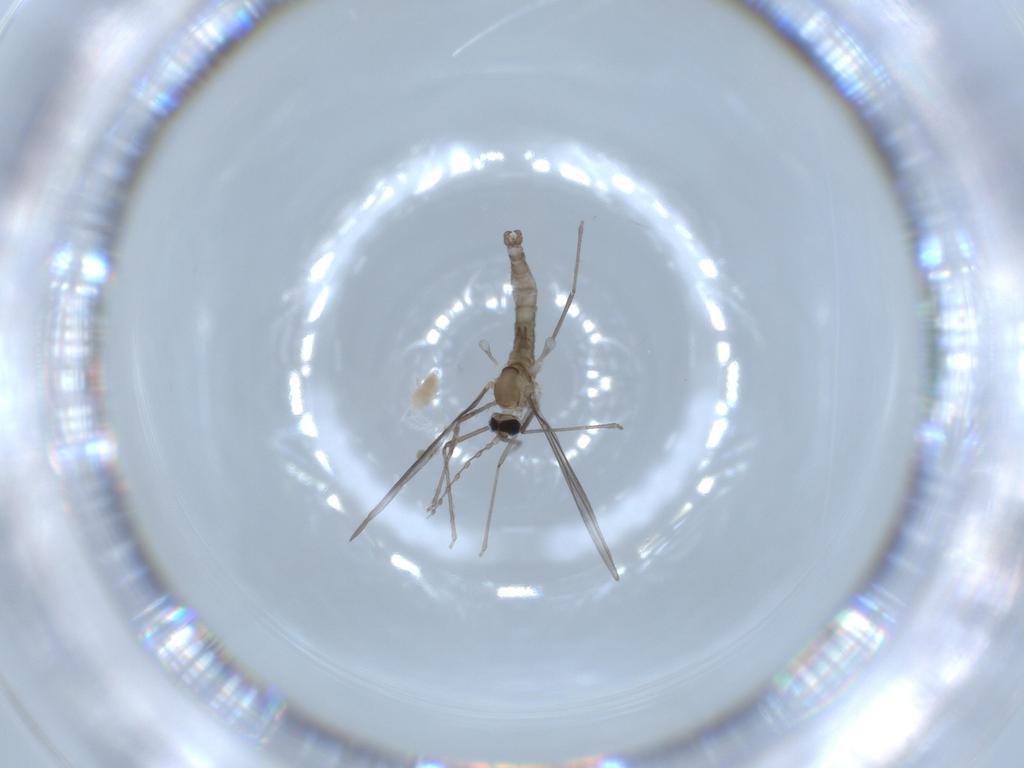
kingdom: Animalia
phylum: Arthropoda
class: Insecta
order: Diptera
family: Cecidomyiidae
